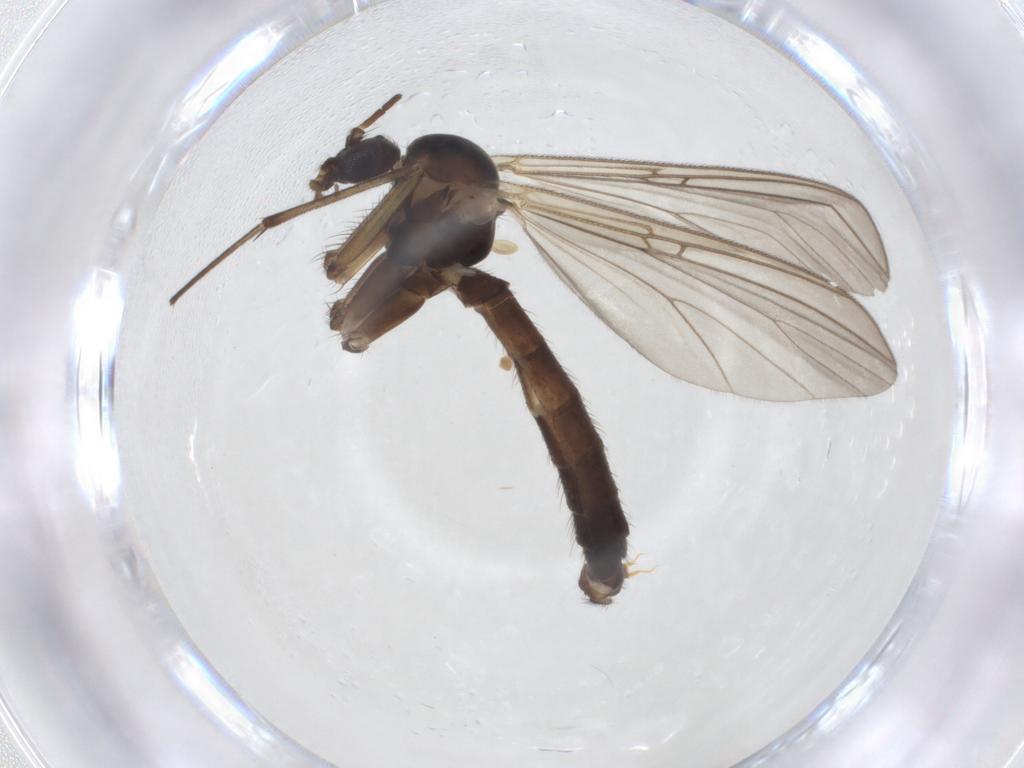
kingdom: Animalia
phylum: Arthropoda
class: Insecta
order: Diptera
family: Mycetophilidae
